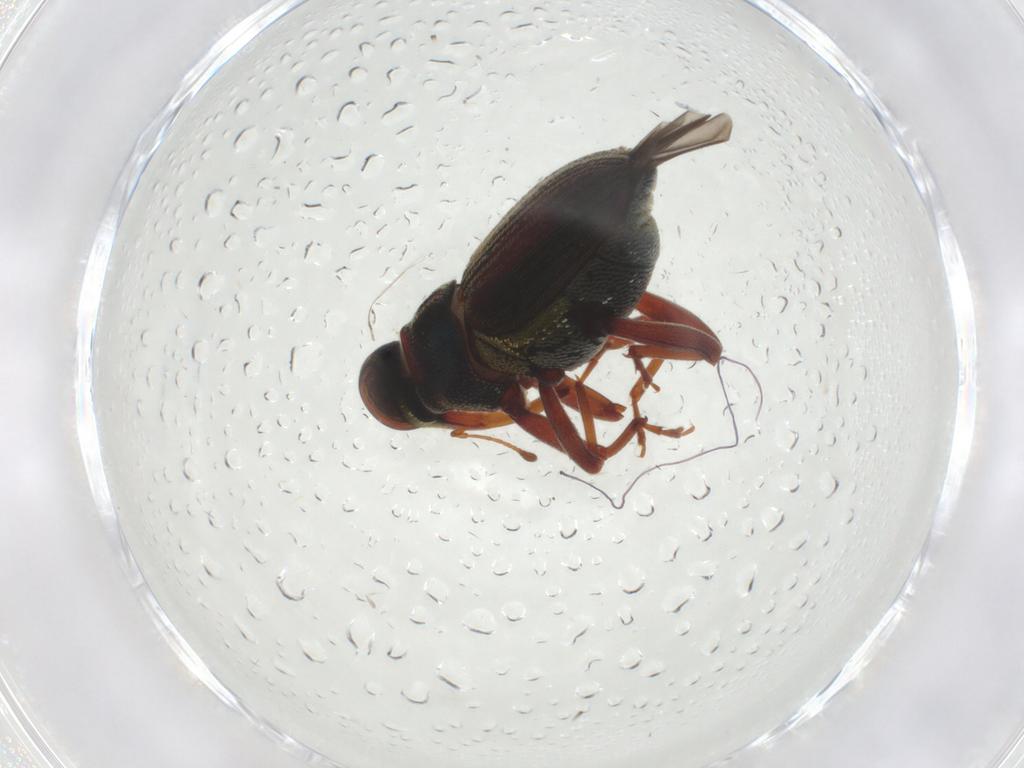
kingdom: Animalia
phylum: Arthropoda
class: Insecta
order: Coleoptera
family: Curculionidae
